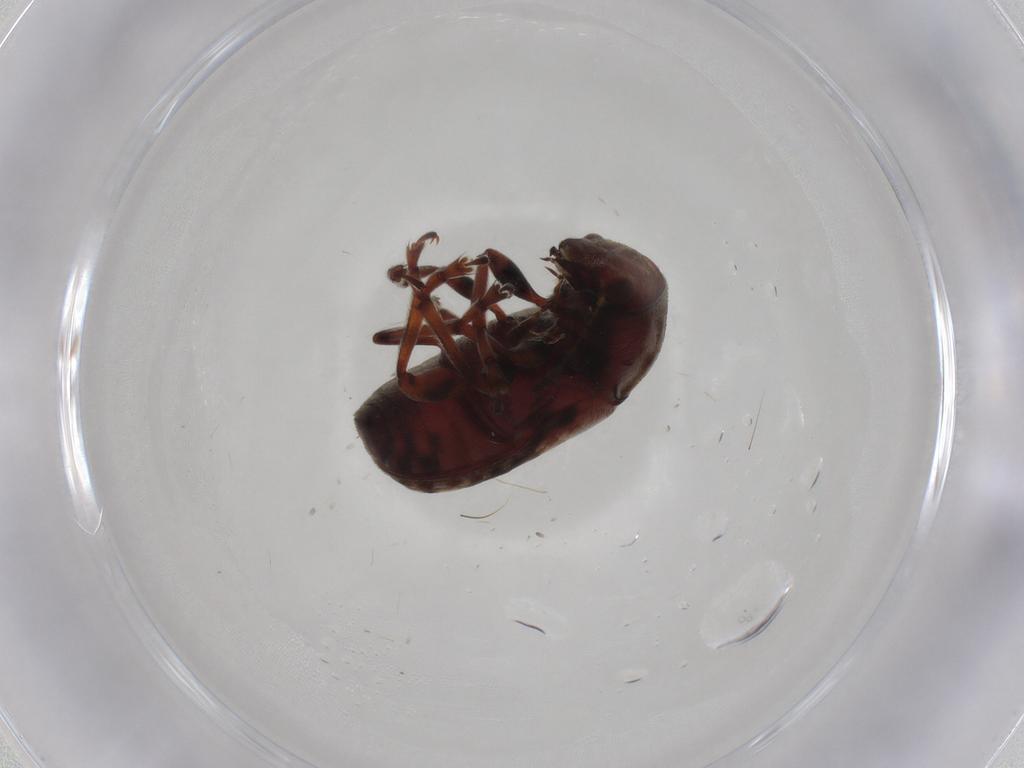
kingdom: Animalia
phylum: Arthropoda
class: Insecta
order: Coleoptera
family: Anthribidae
